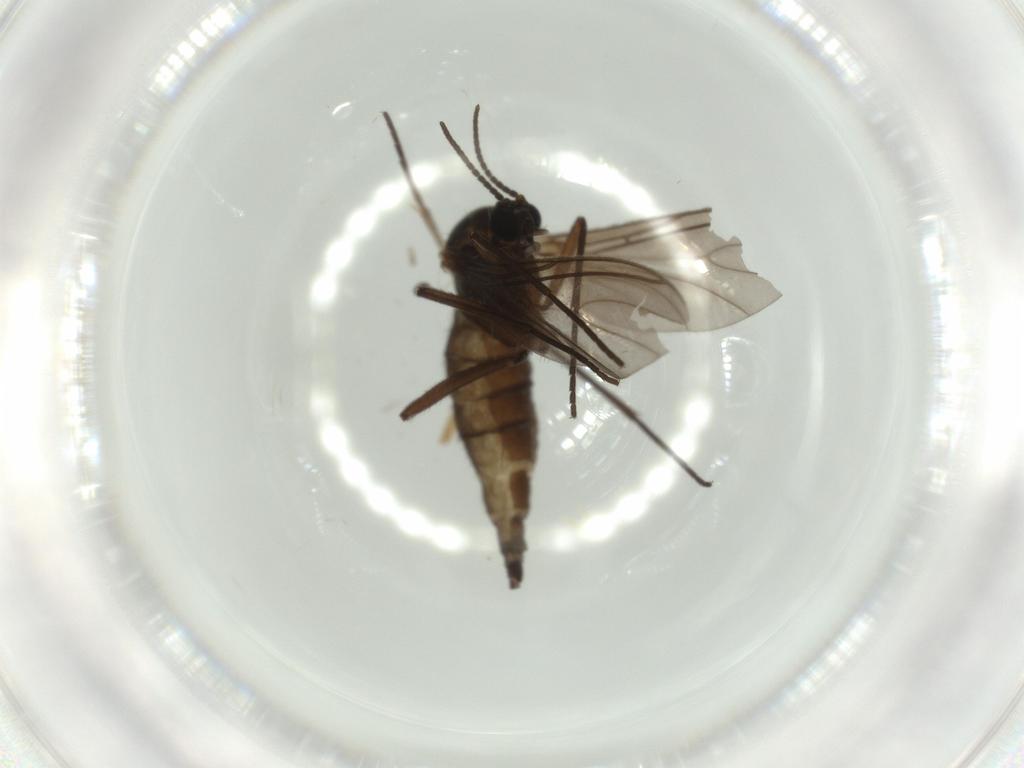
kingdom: Animalia
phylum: Arthropoda
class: Insecta
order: Diptera
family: Sciaridae
